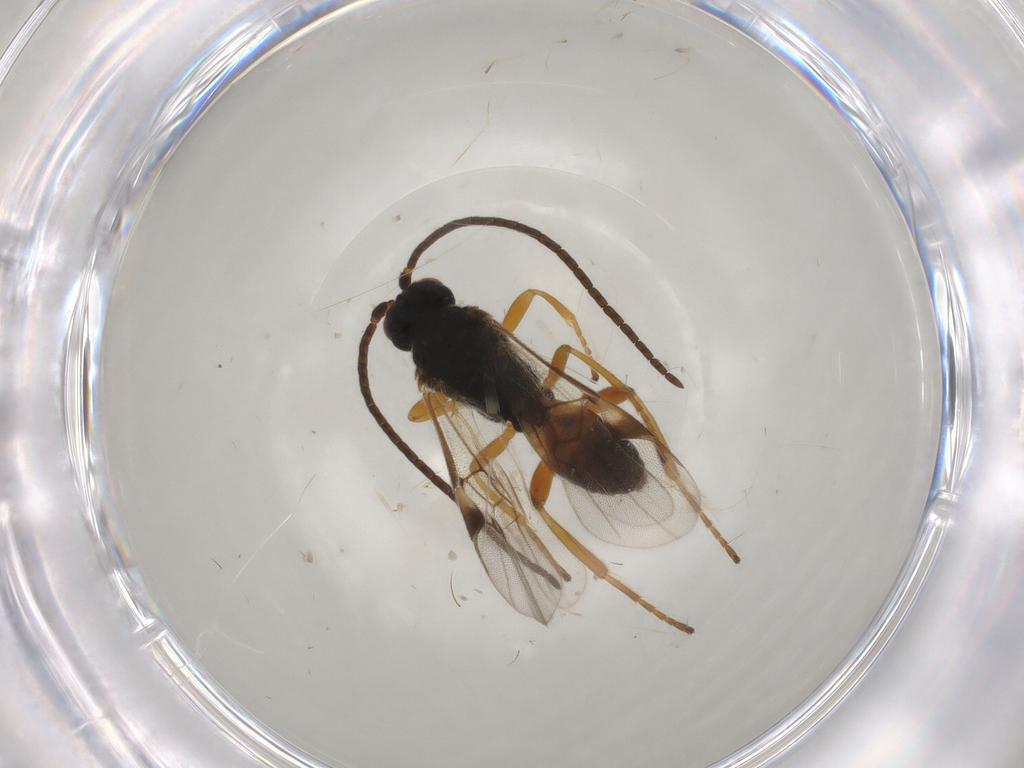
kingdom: Animalia
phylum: Arthropoda
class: Insecta
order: Hymenoptera
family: Braconidae
